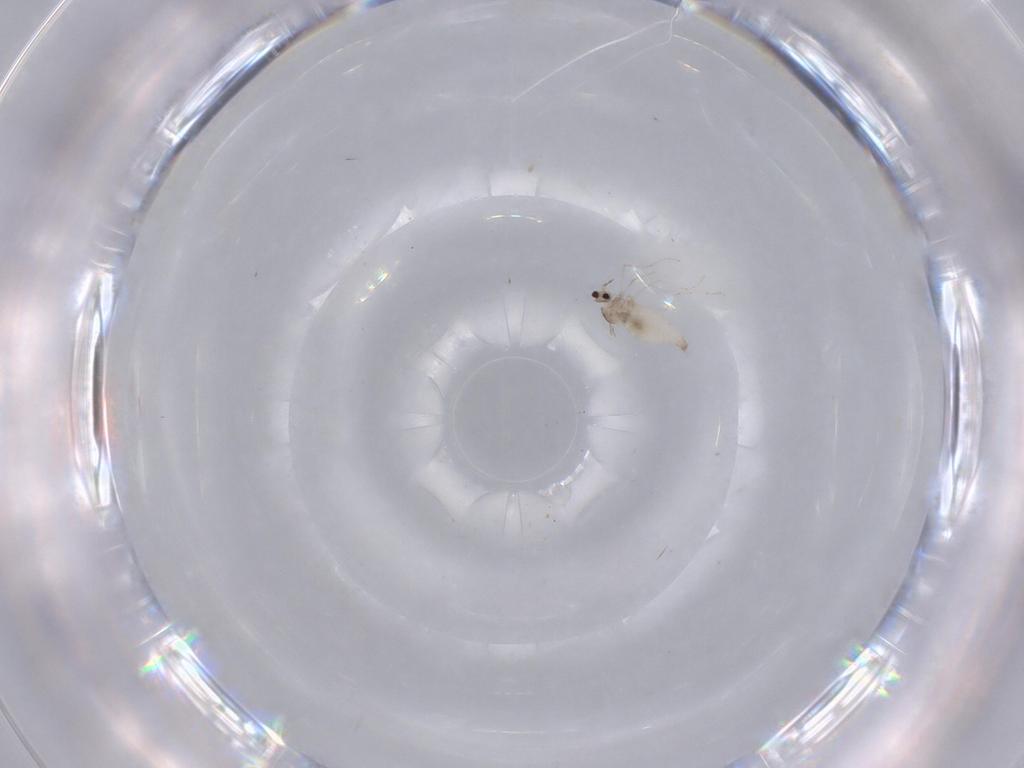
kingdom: Animalia
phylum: Arthropoda
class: Insecta
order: Diptera
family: Cecidomyiidae
